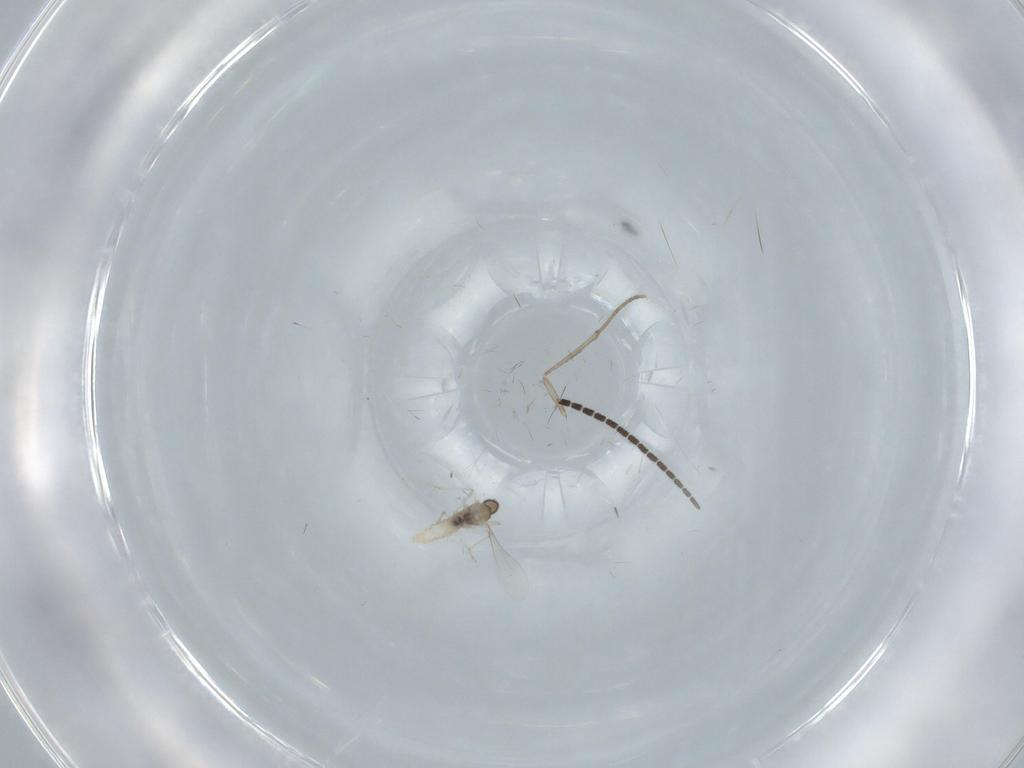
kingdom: Animalia
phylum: Arthropoda
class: Insecta
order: Diptera
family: Sciaridae
